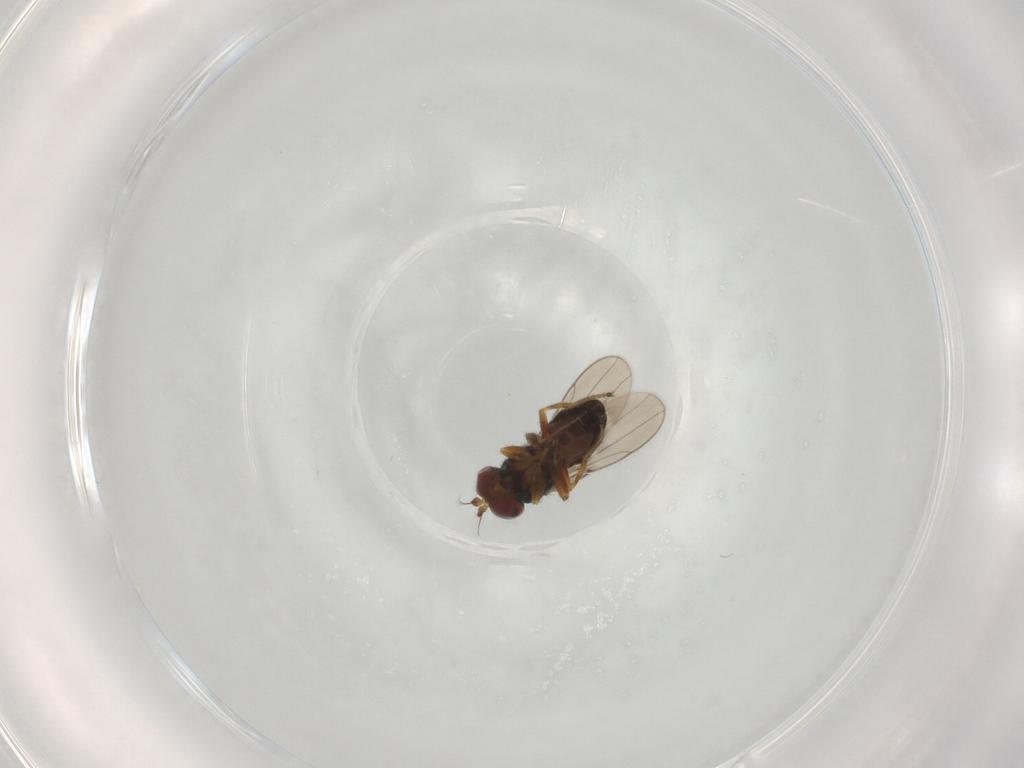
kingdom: Animalia
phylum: Arthropoda
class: Insecta
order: Diptera
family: Ephydridae
